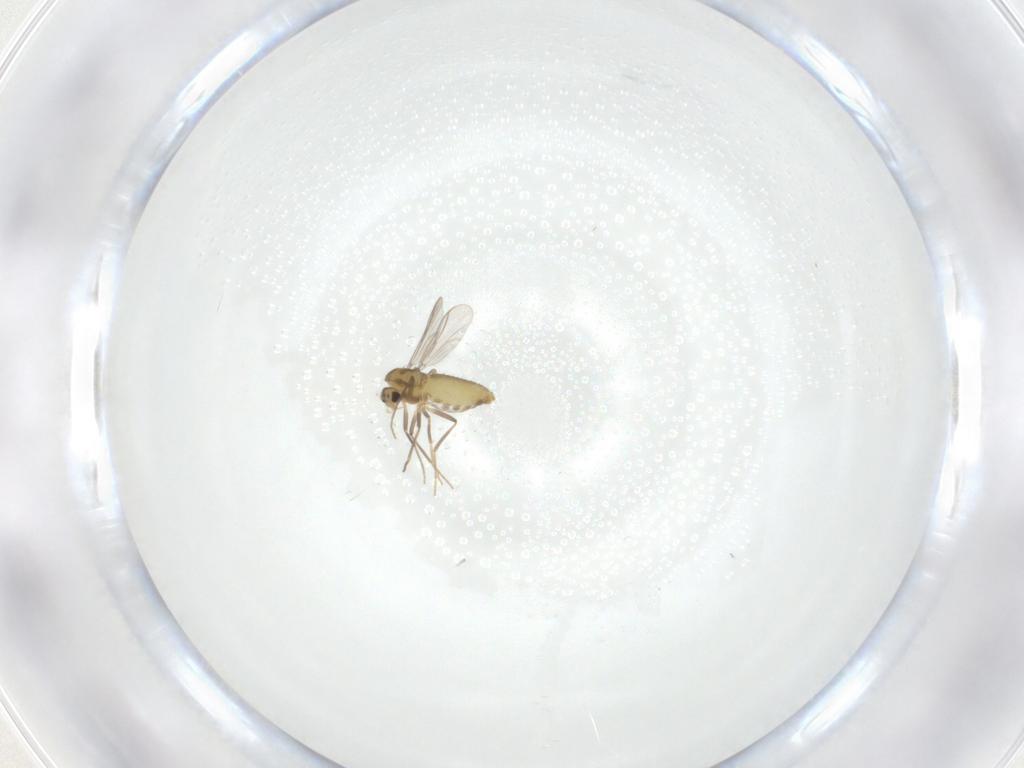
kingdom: Animalia
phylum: Arthropoda
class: Insecta
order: Diptera
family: Chironomidae
